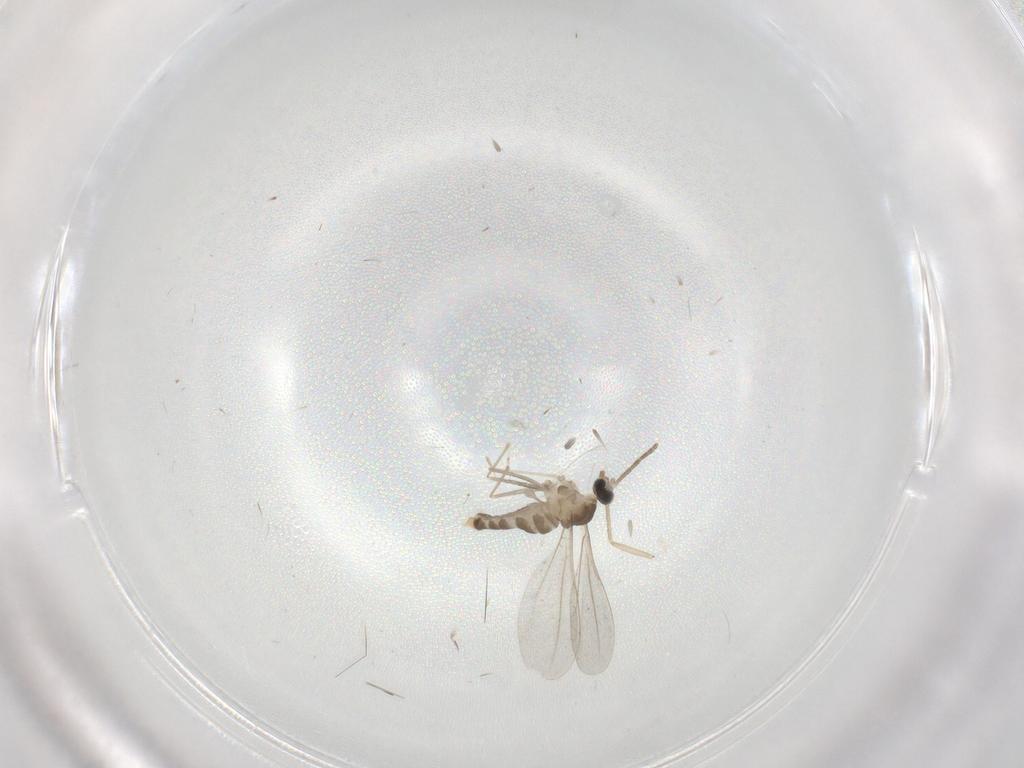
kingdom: Animalia
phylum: Arthropoda
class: Insecta
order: Diptera
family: Cecidomyiidae
